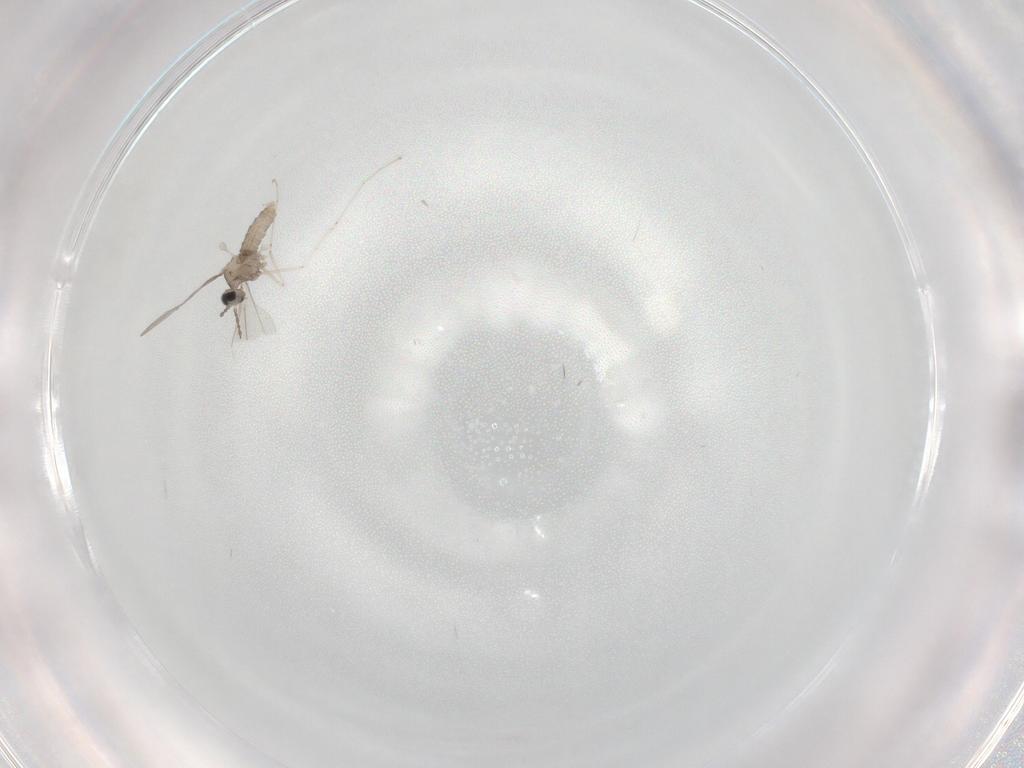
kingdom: Animalia
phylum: Arthropoda
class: Insecta
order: Diptera
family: Cecidomyiidae
